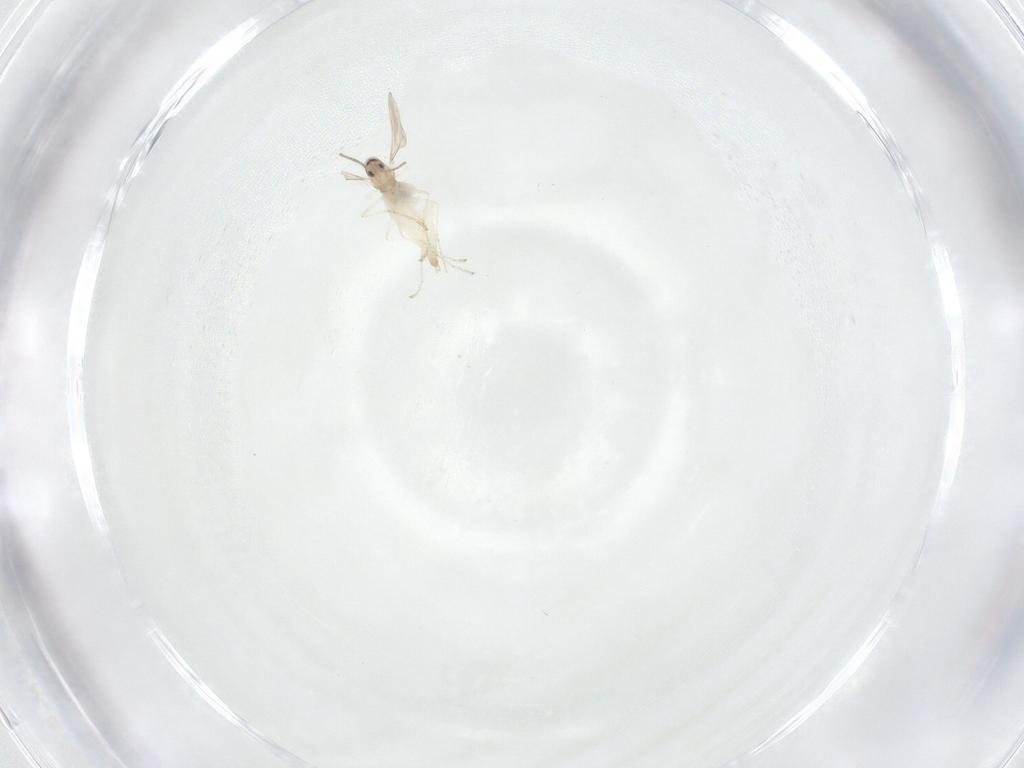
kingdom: Animalia
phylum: Arthropoda
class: Insecta
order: Diptera
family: Cecidomyiidae
